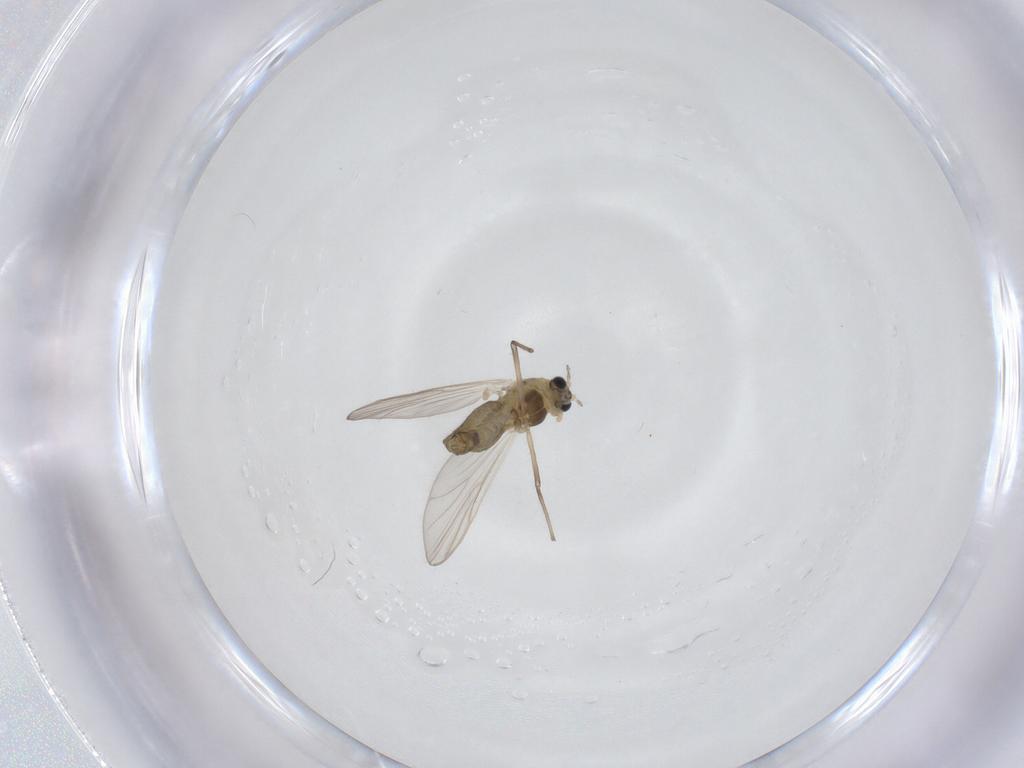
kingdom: Animalia
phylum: Arthropoda
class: Insecta
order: Diptera
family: Chironomidae
